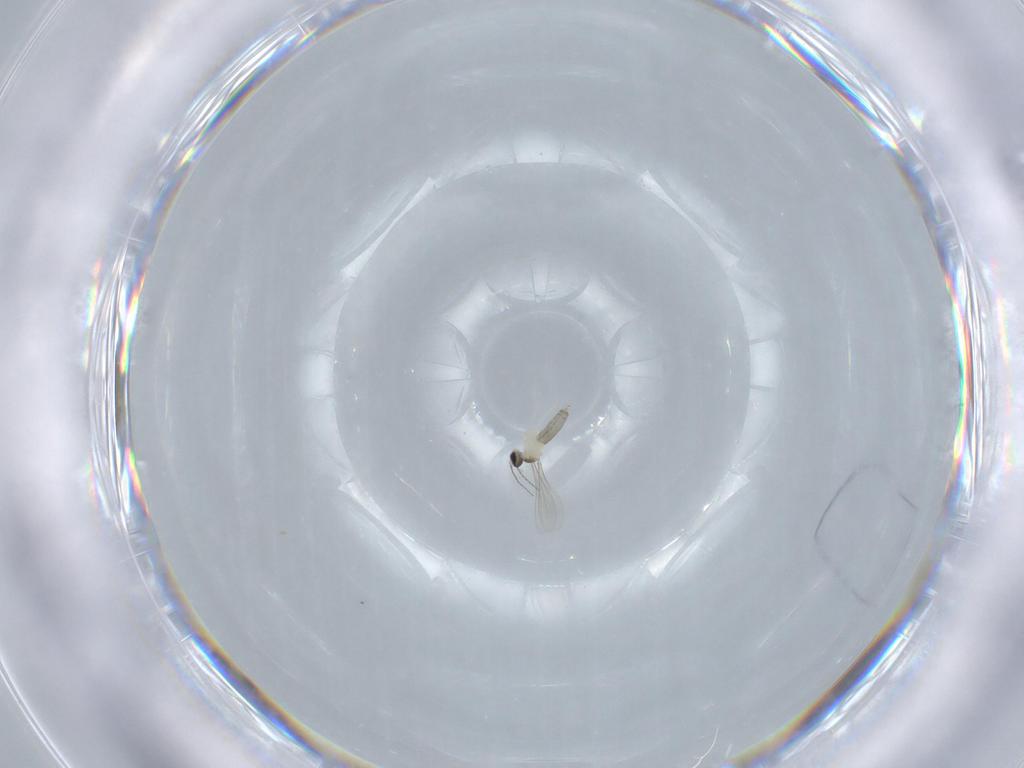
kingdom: Animalia
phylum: Arthropoda
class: Insecta
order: Diptera
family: Phoridae
